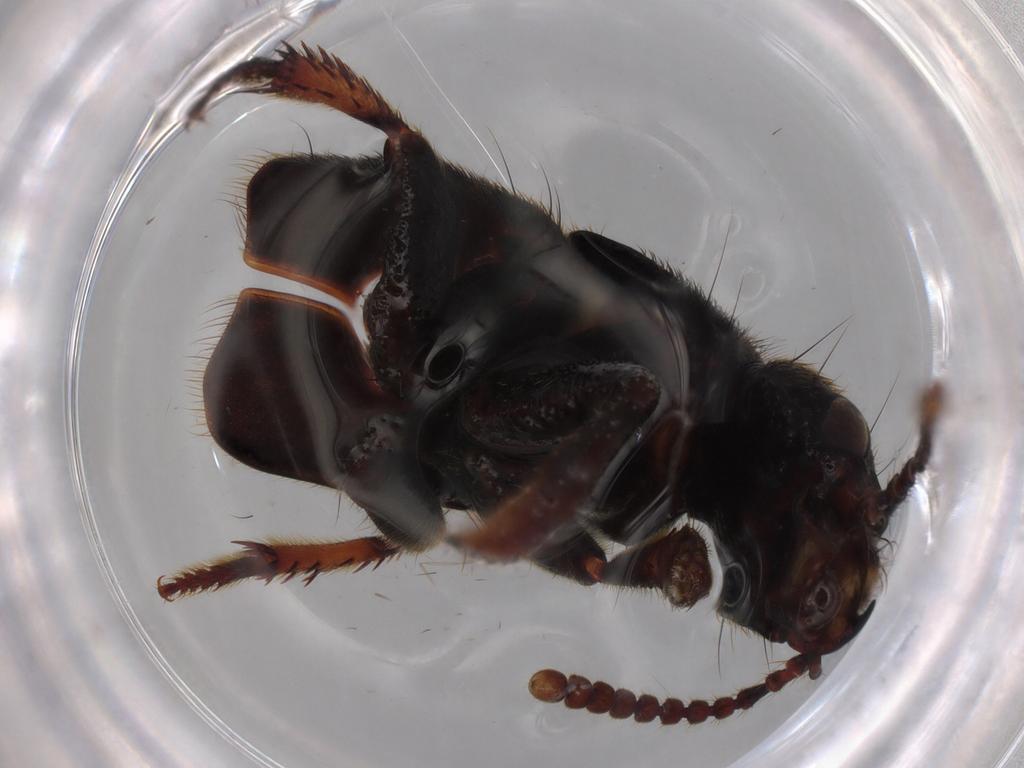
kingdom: Animalia
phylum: Arthropoda
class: Insecta
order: Coleoptera
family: Staphylinidae
